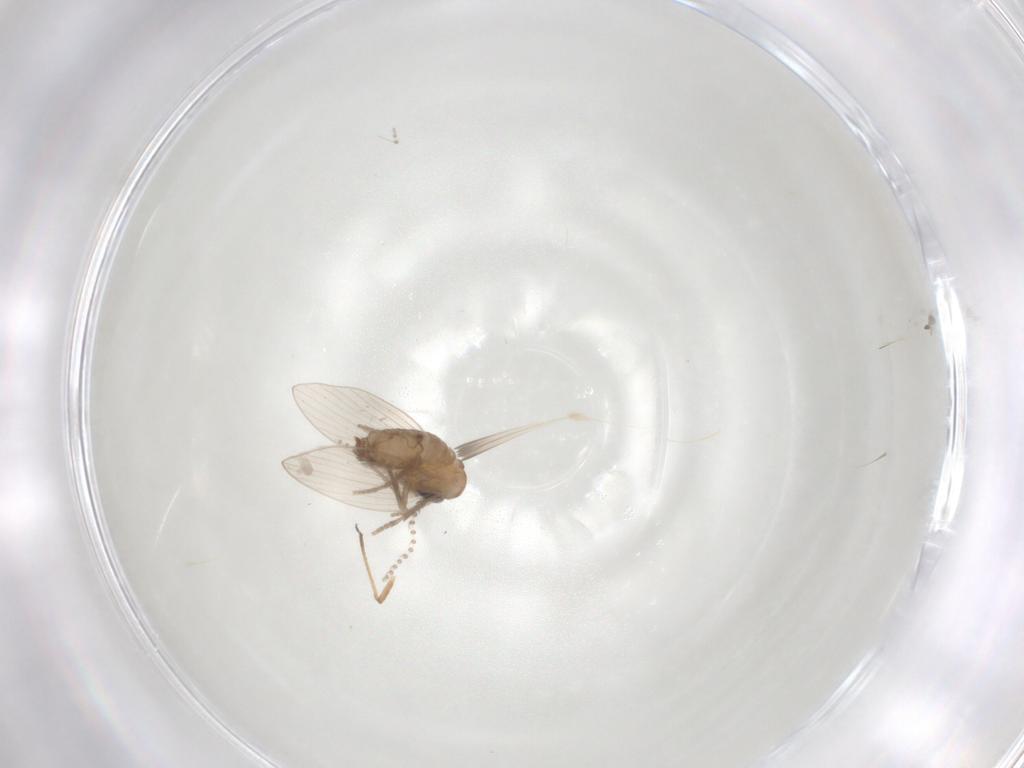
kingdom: Animalia
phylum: Arthropoda
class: Insecta
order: Diptera
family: Psychodidae
